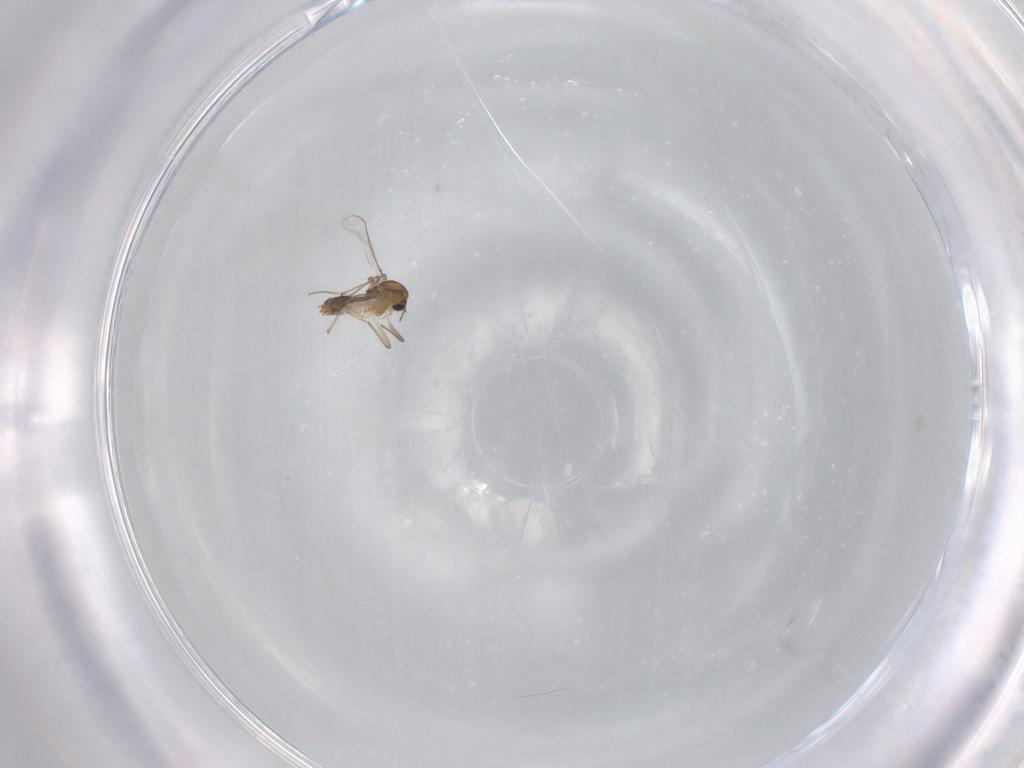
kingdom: Animalia
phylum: Arthropoda
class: Insecta
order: Diptera
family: Chironomidae
